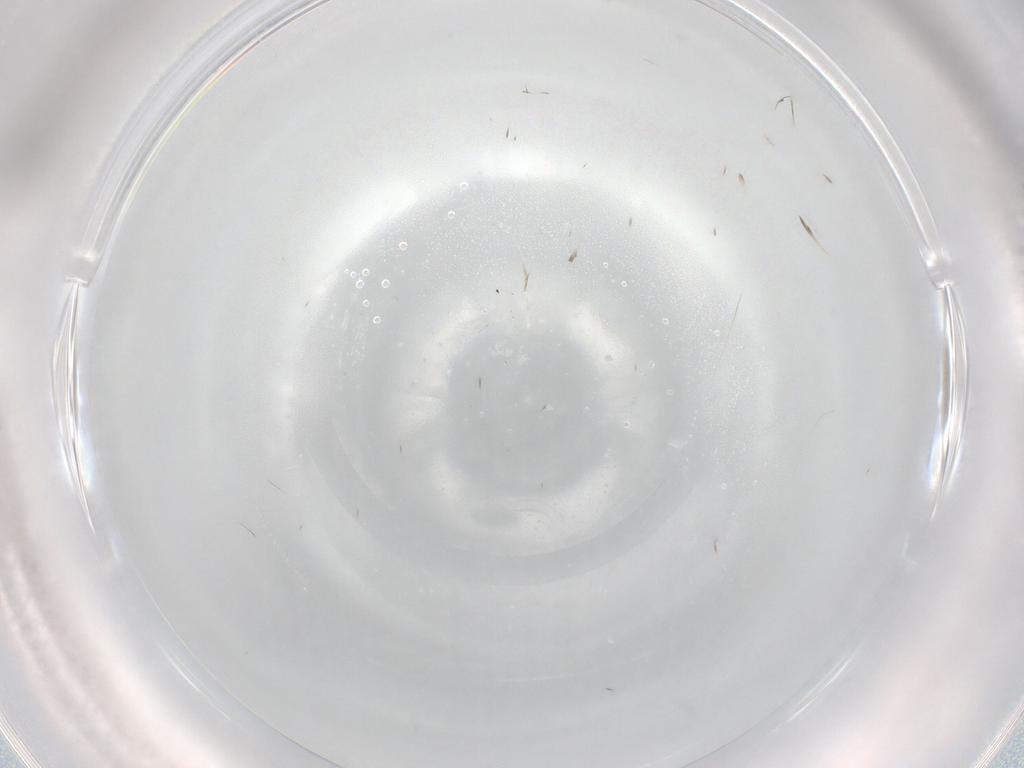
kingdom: Animalia
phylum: Arthropoda
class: Insecta
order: Diptera
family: Cecidomyiidae
